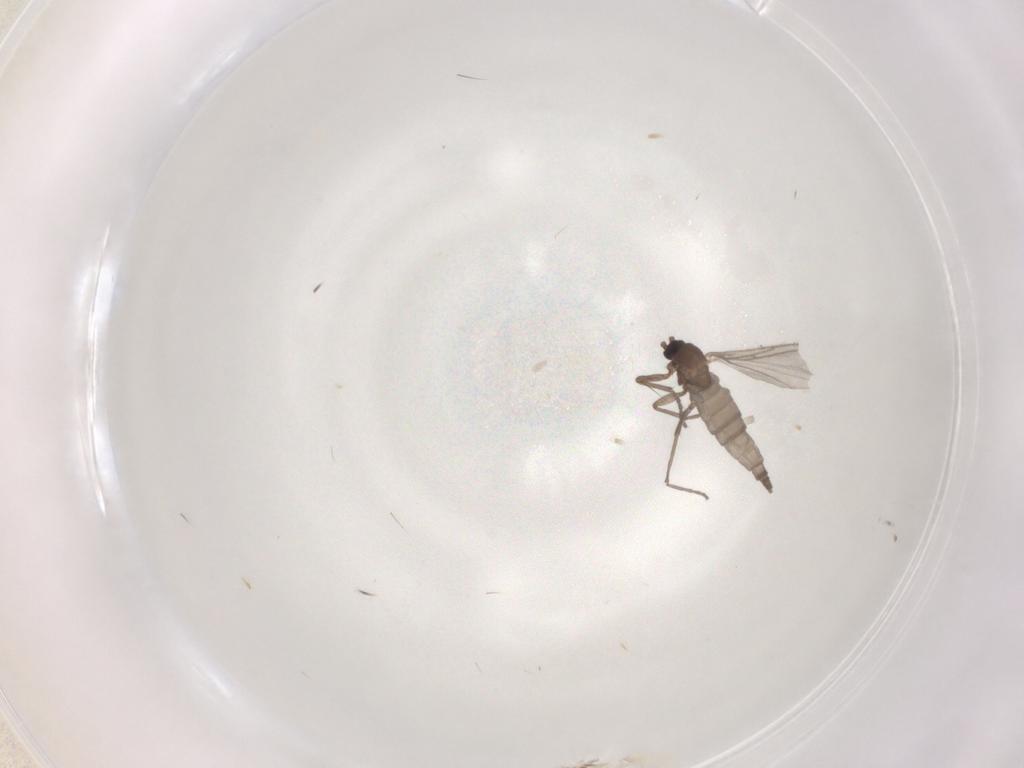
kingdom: Animalia
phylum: Arthropoda
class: Insecta
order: Diptera
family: Sciaridae
